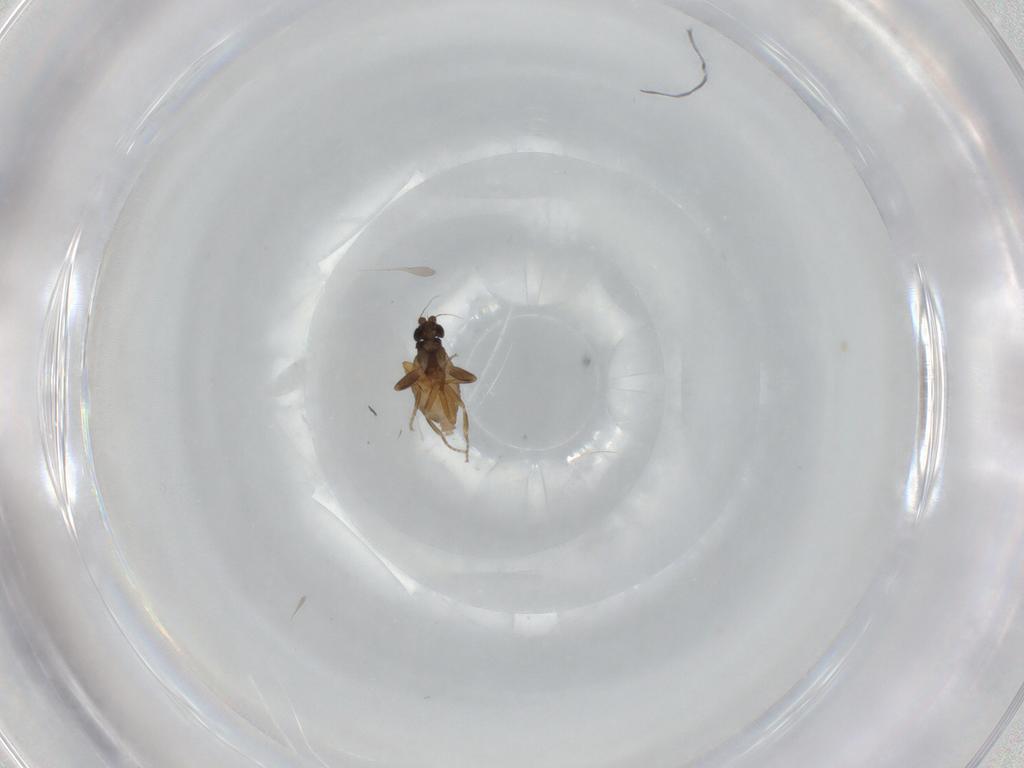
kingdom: Animalia
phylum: Arthropoda
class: Insecta
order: Diptera
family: Phoridae
